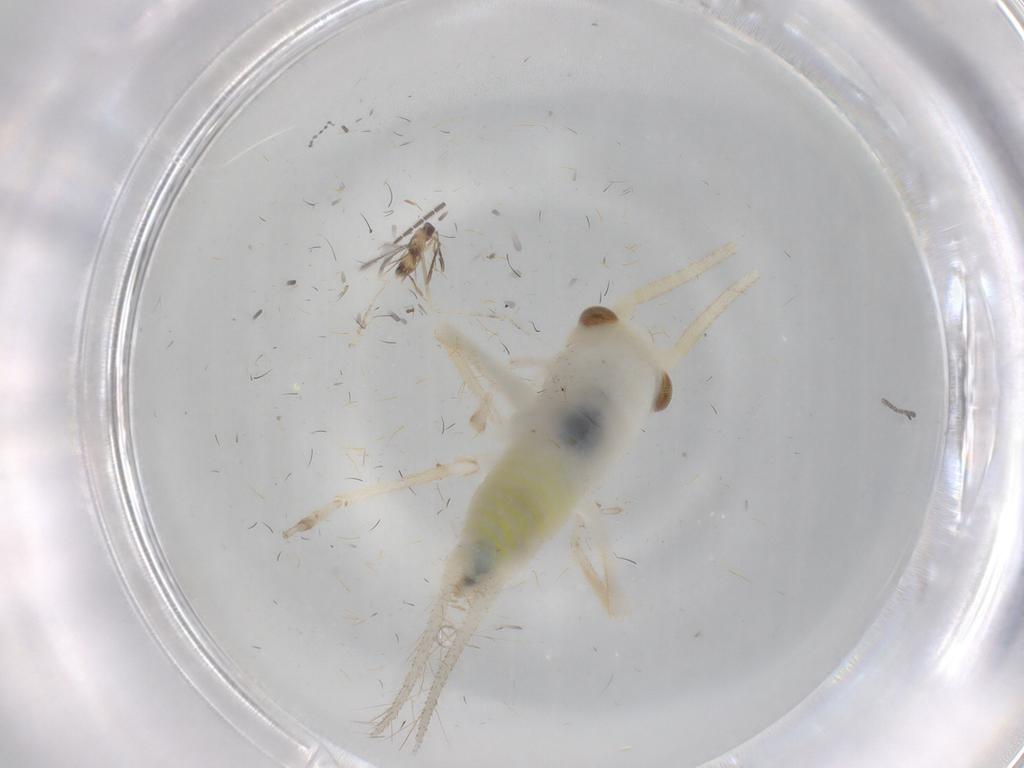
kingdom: Animalia
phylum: Arthropoda
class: Insecta
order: Orthoptera
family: Trigonidiidae
